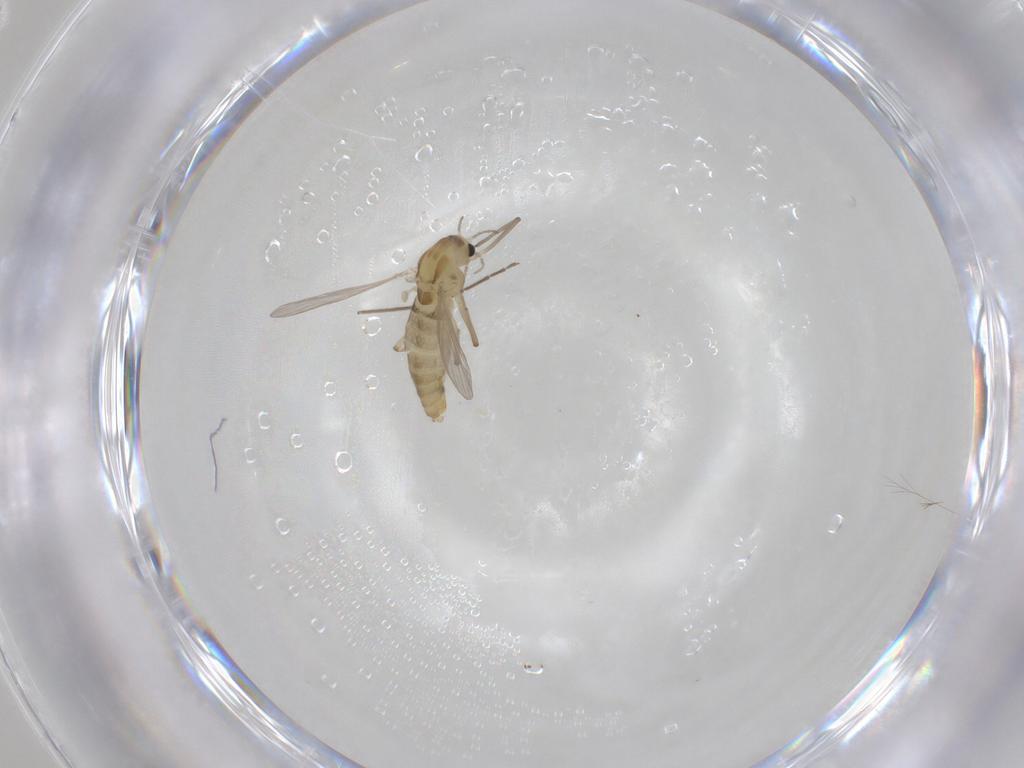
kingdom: Animalia
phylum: Arthropoda
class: Insecta
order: Diptera
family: Chironomidae
